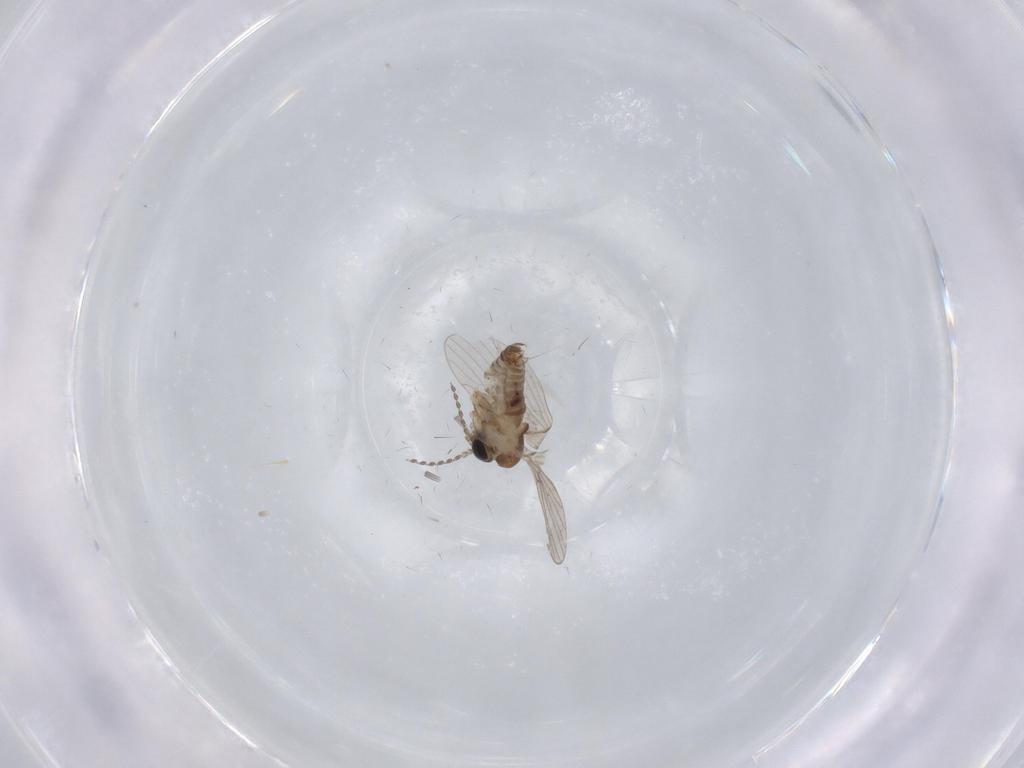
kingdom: Animalia
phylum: Arthropoda
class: Insecta
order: Diptera
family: Psychodidae
